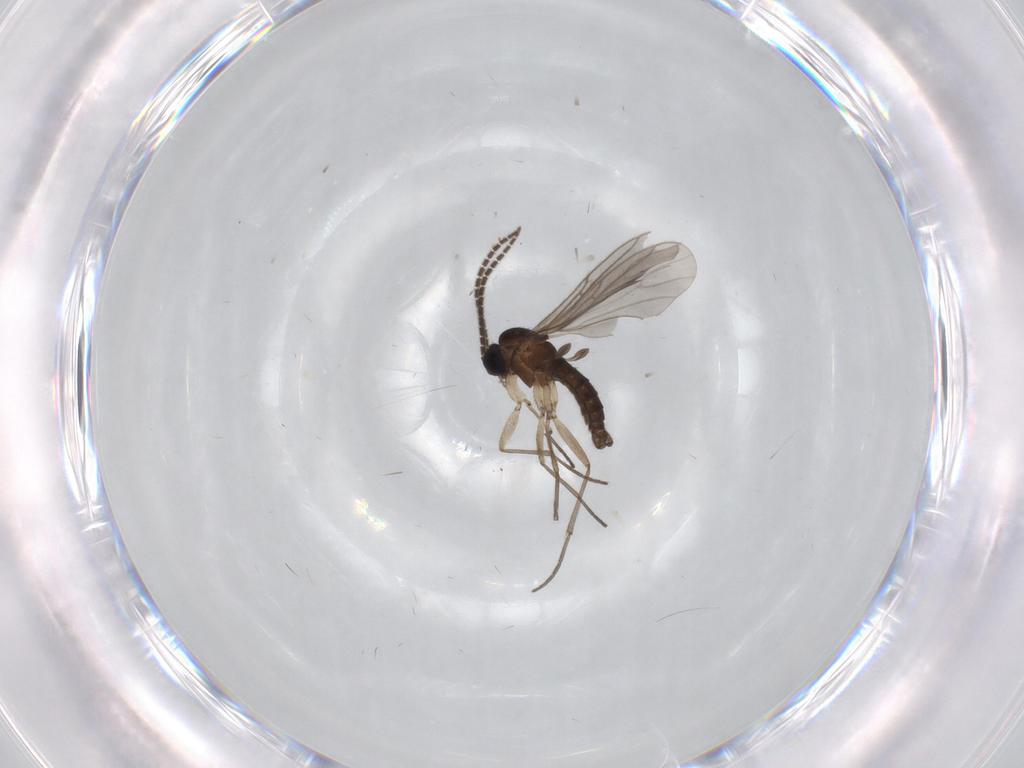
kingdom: Animalia
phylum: Arthropoda
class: Insecta
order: Diptera
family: Sciaridae
